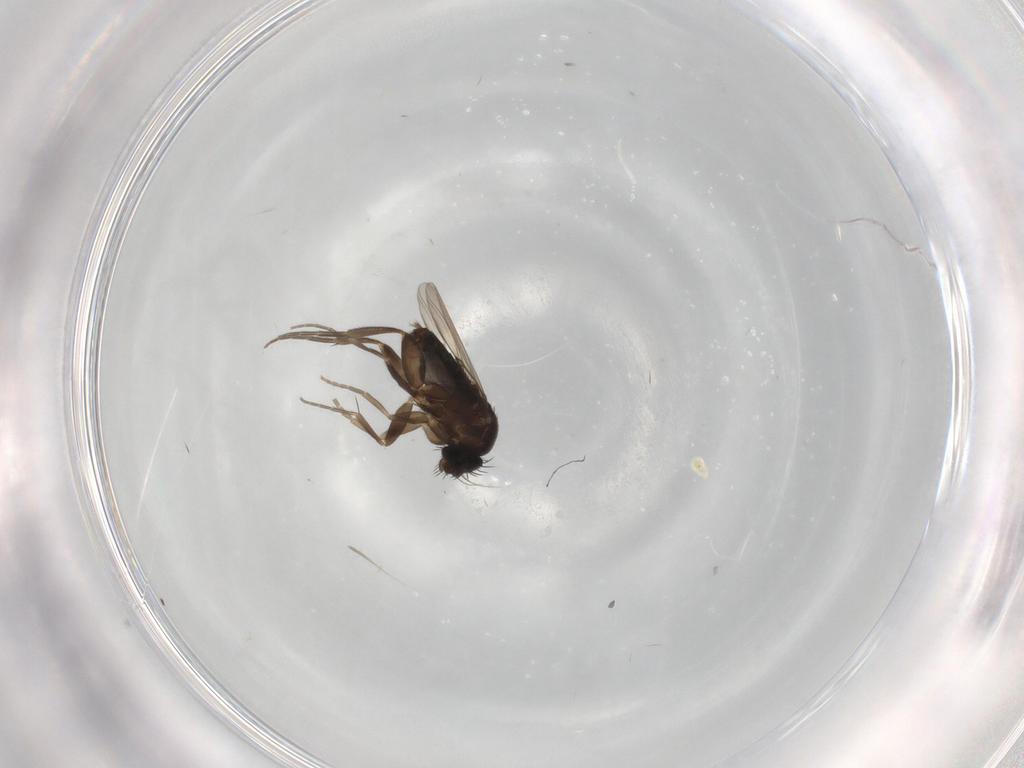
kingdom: Animalia
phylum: Arthropoda
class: Insecta
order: Diptera
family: Phoridae
